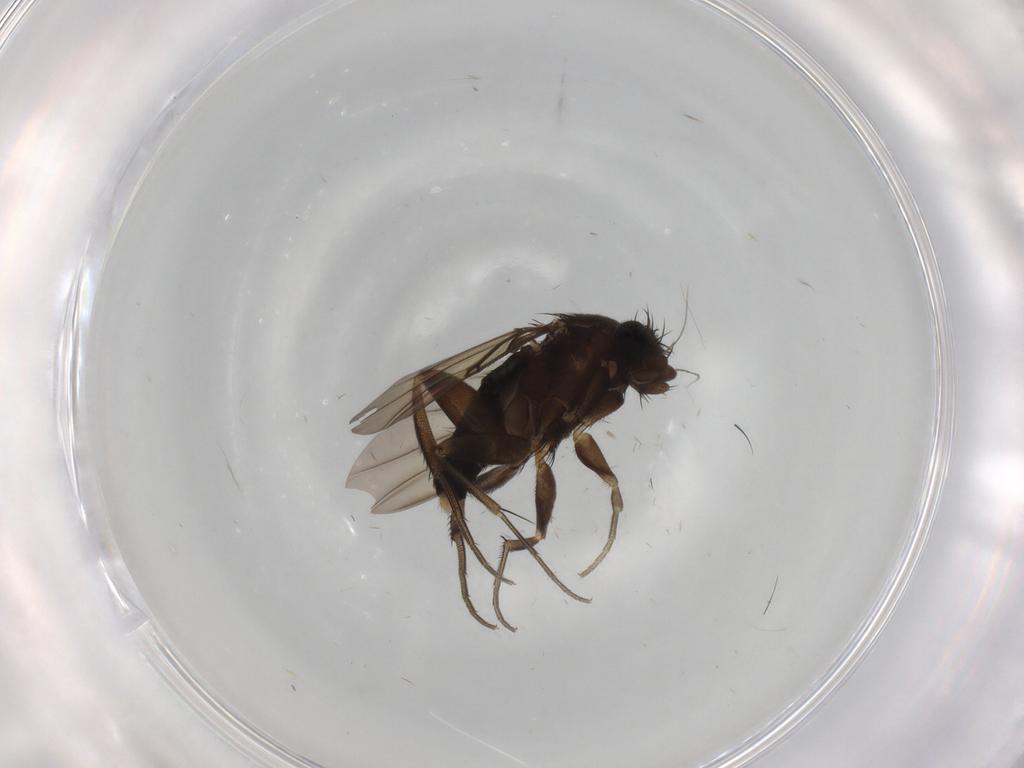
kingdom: Animalia
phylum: Arthropoda
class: Insecta
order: Diptera
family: Phoridae
